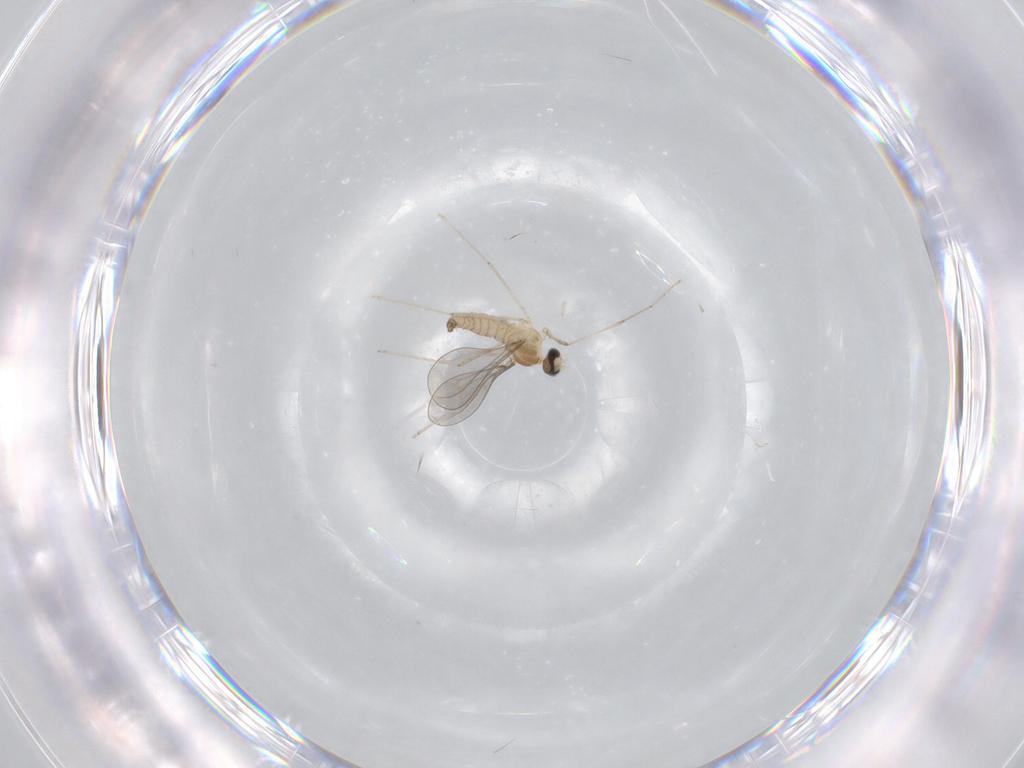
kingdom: Animalia
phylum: Arthropoda
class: Insecta
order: Diptera
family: Cecidomyiidae
